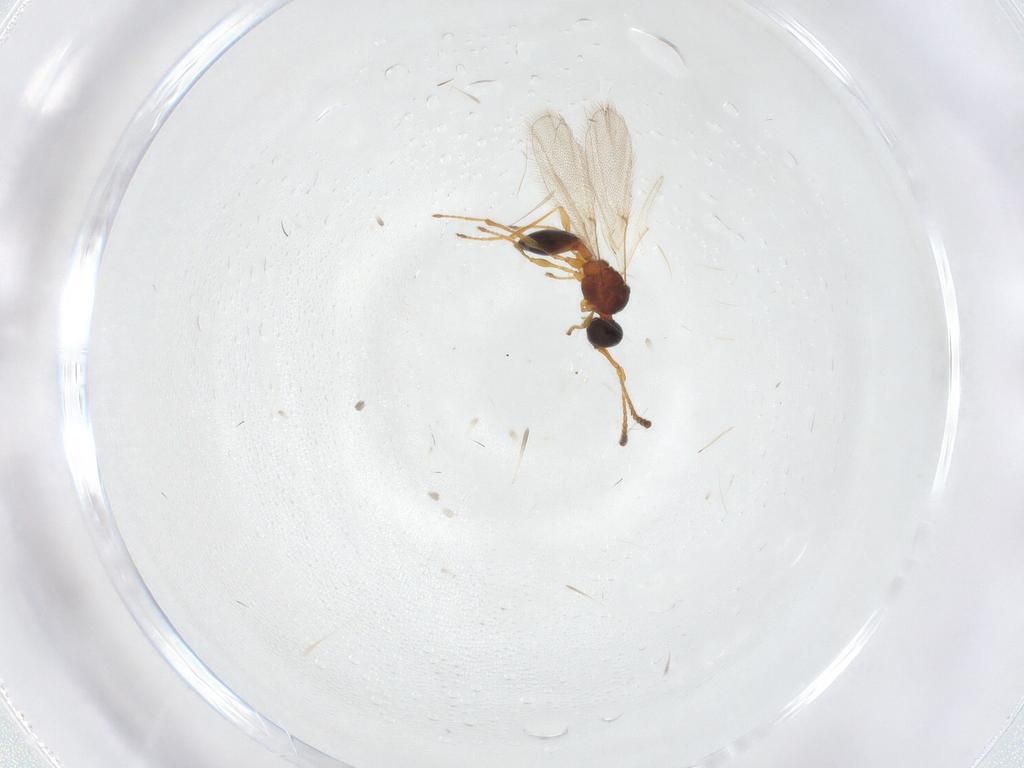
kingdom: Animalia
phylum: Arthropoda
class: Insecta
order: Hymenoptera
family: Diapriidae
